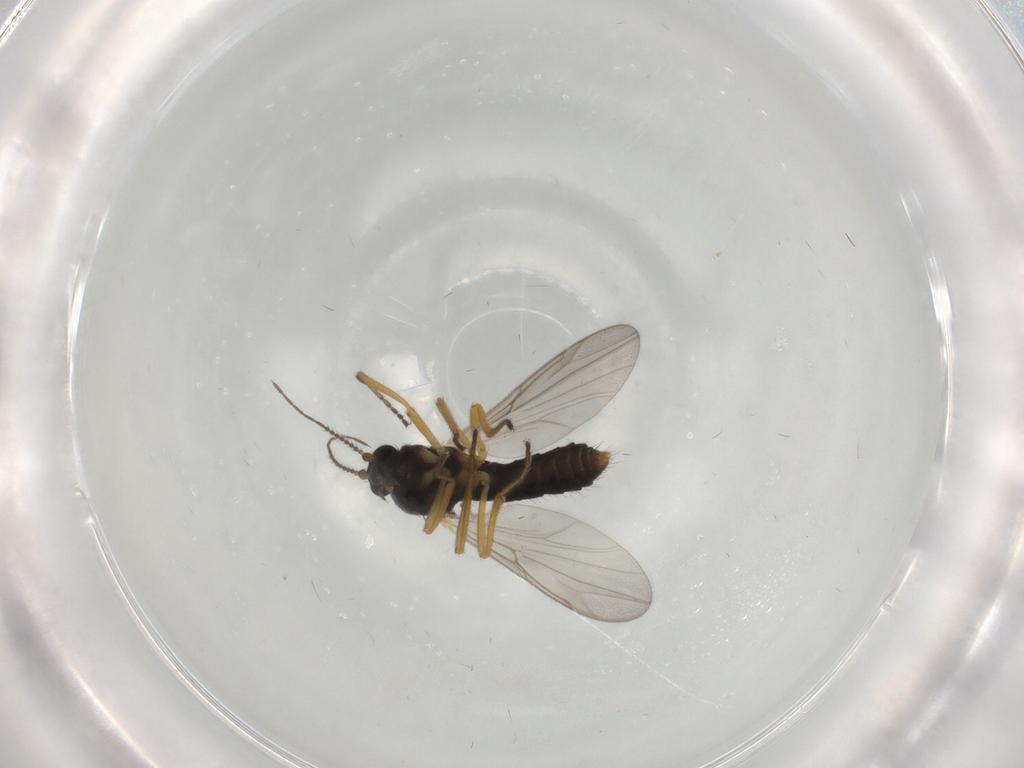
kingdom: Animalia
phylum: Arthropoda
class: Insecta
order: Diptera
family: Ceratopogonidae
